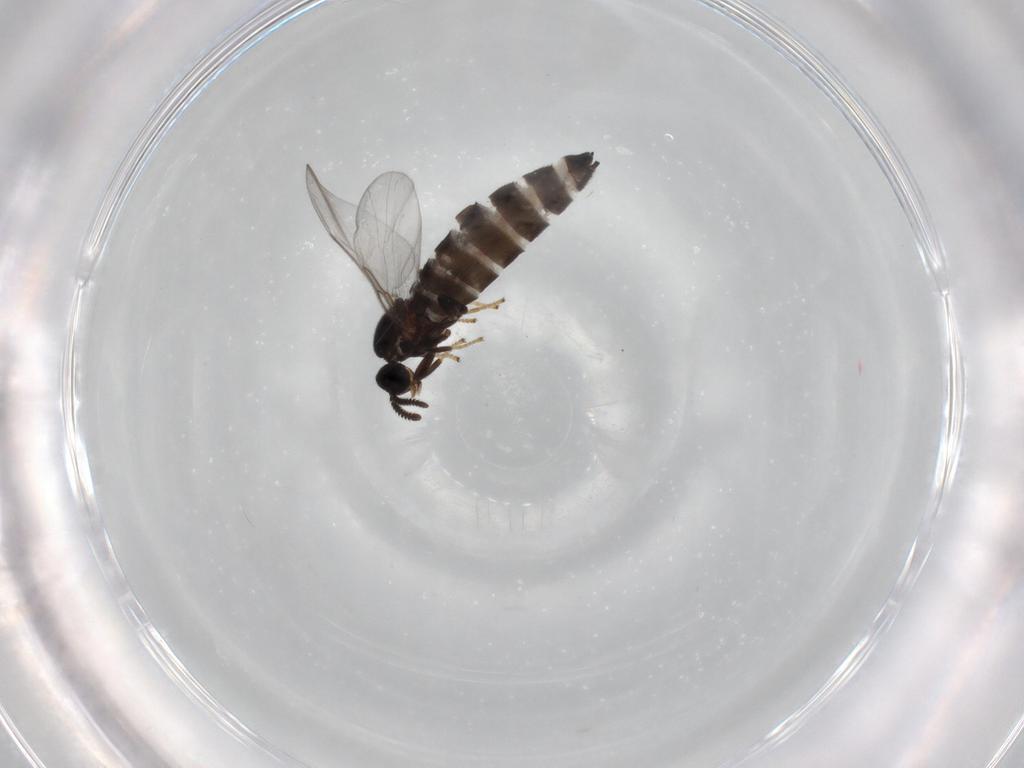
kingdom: Animalia
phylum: Arthropoda
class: Insecta
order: Diptera
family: Scatopsidae
